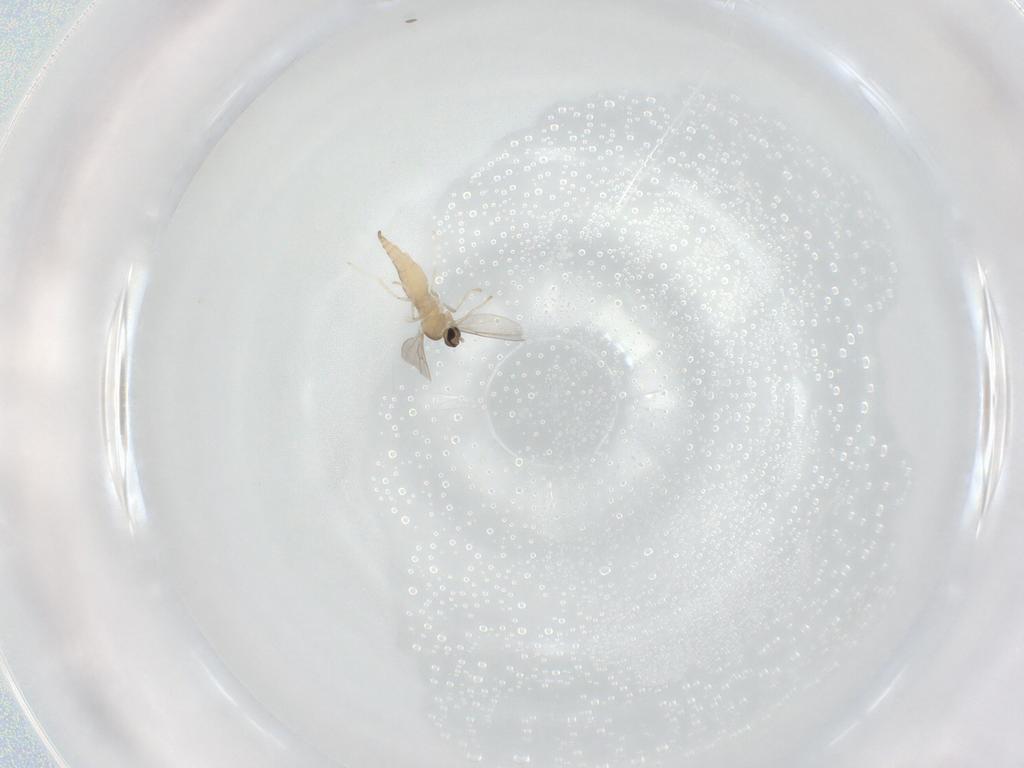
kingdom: Animalia
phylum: Arthropoda
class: Insecta
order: Diptera
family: Cecidomyiidae
